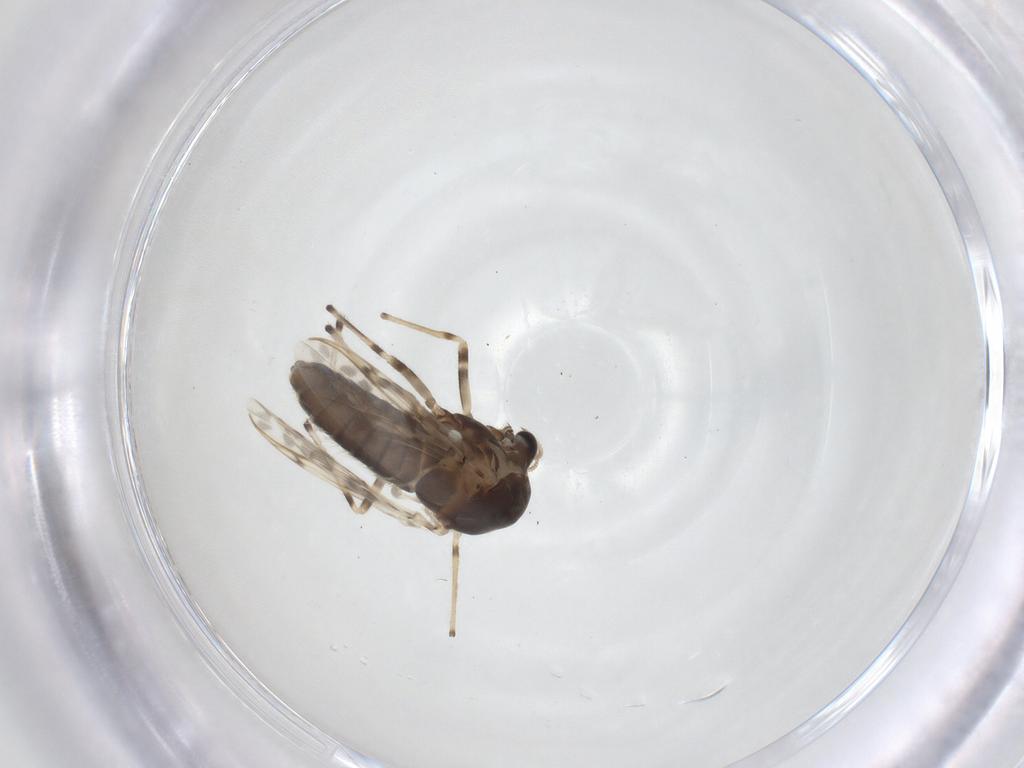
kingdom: Animalia
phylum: Arthropoda
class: Insecta
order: Diptera
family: Chironomidae
